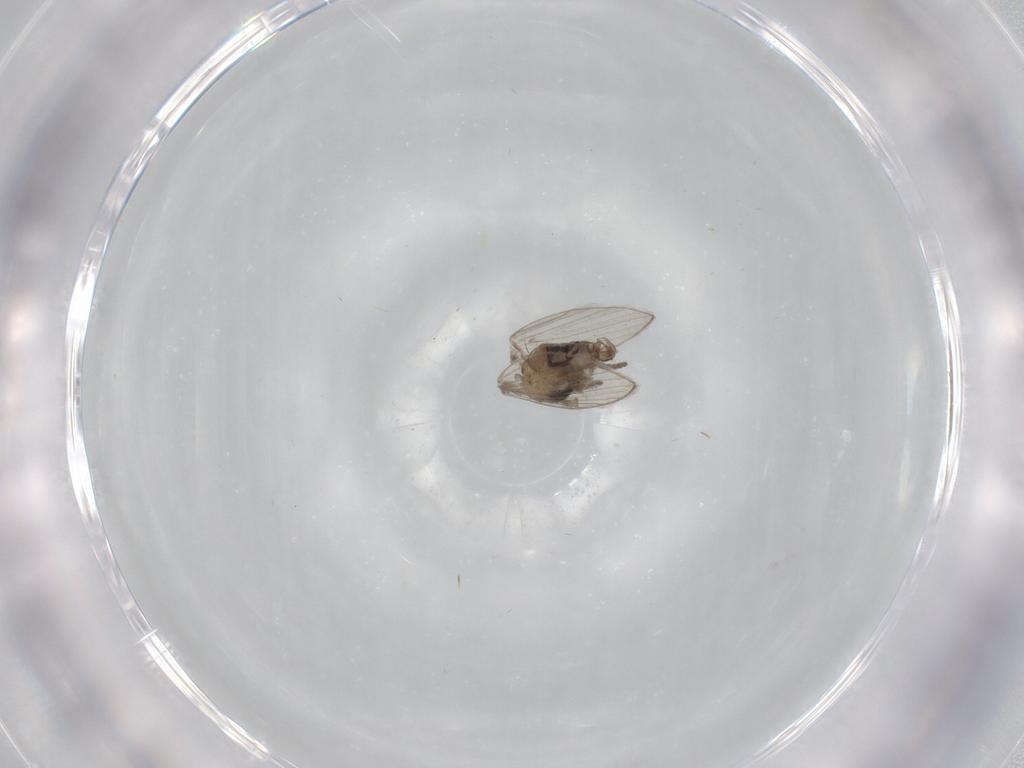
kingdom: Animalia
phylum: Arthropoda
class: Insecta
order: Diptera
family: Psychodidae
